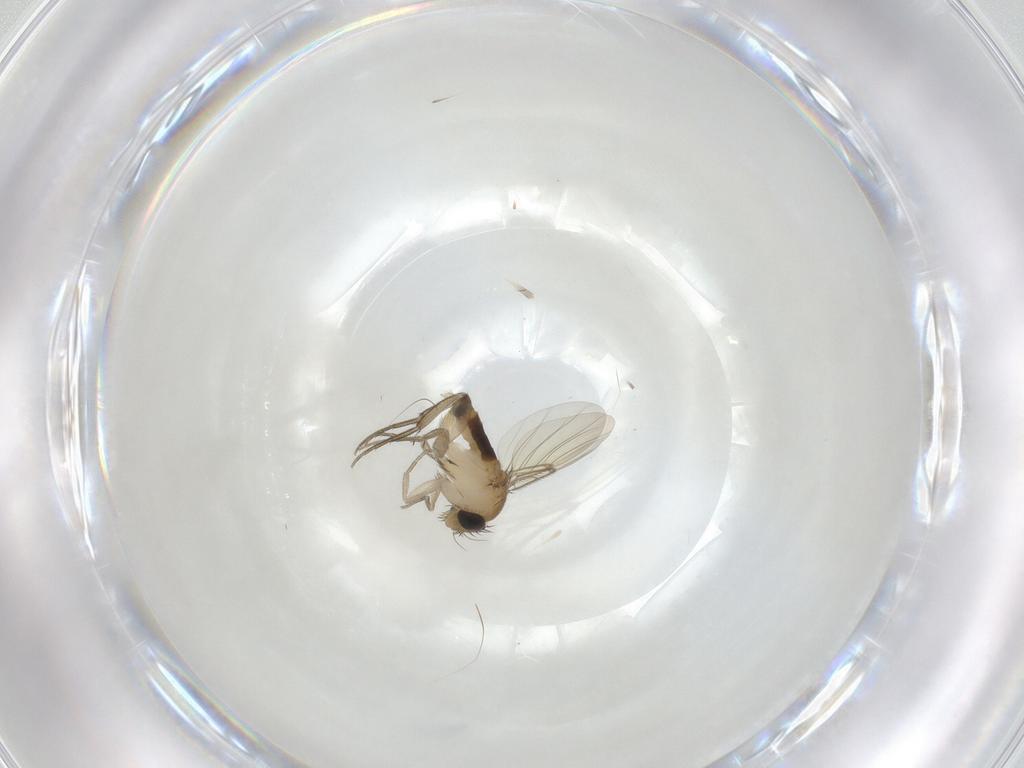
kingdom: Animalia
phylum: Arthropoda
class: Insecta
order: Diptera
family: Phoridae
